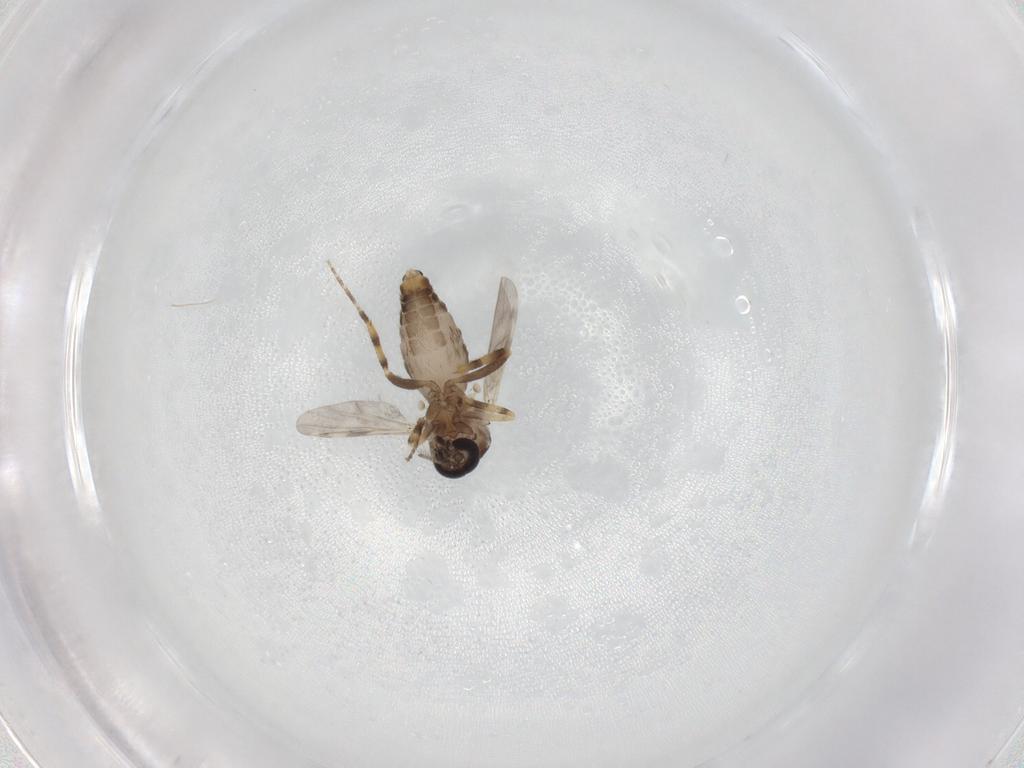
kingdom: Animalia
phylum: Arthropoda
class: Insecta
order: Diptera
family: Ceratopogonidae
